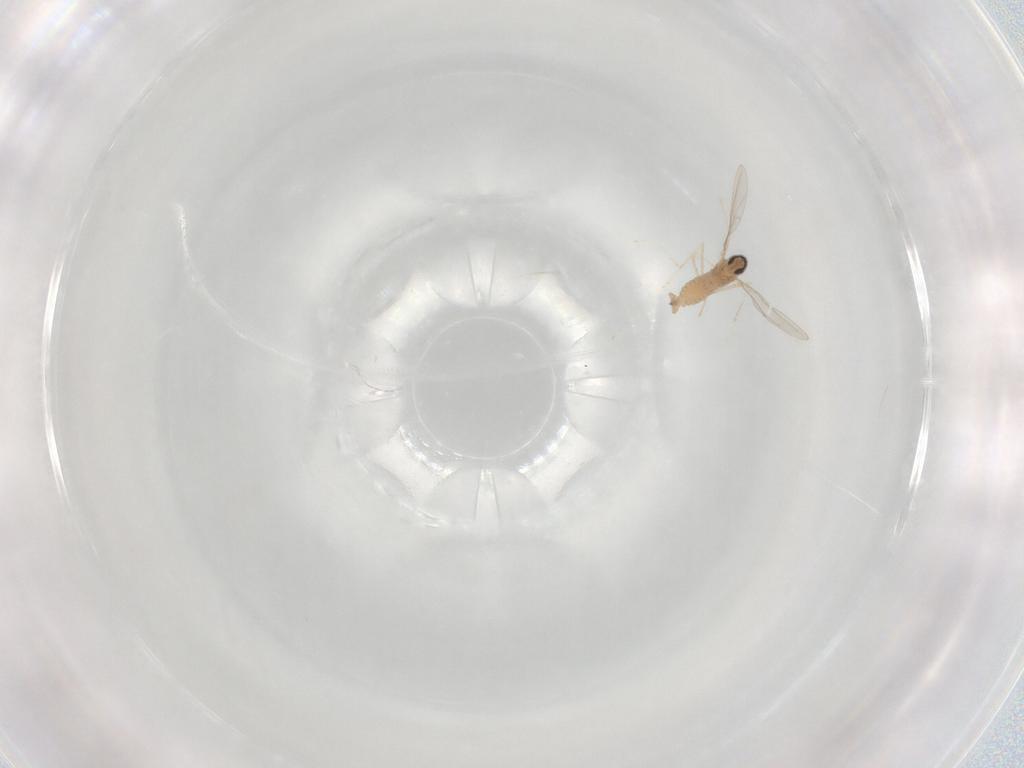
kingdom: Animalia
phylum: Arthropoda
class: Insecta
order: Diptera
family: Cecidomyiidae
